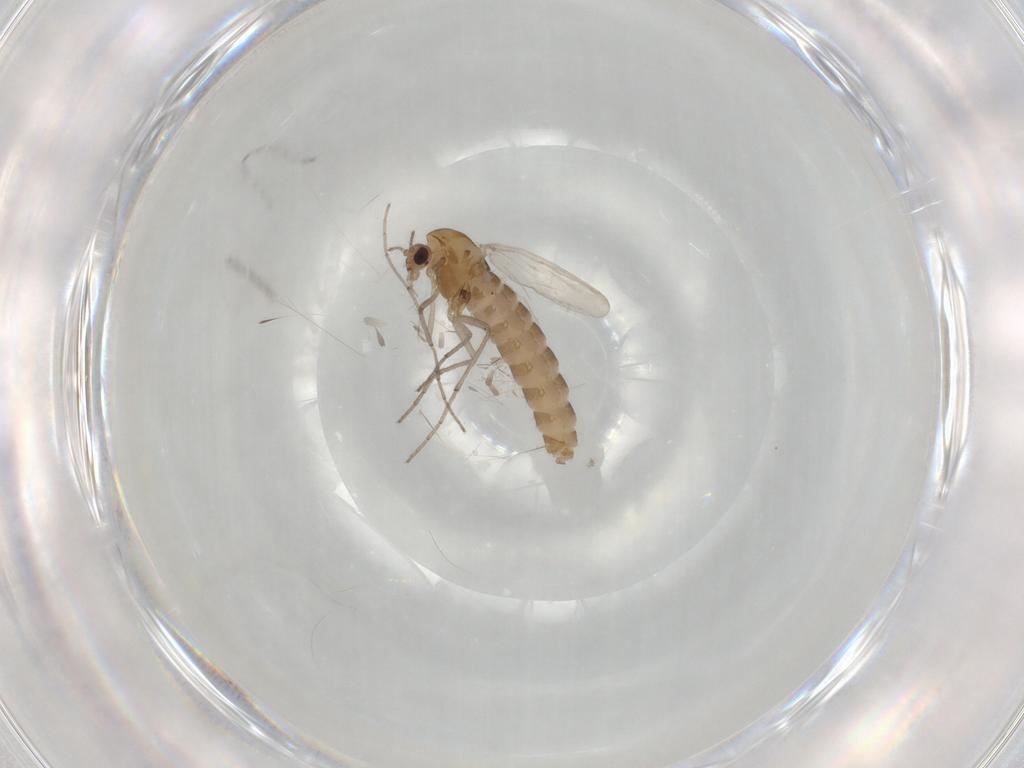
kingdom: Animalia
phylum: Arthropoda
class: Insecta
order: Diptera
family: Chironomidae
